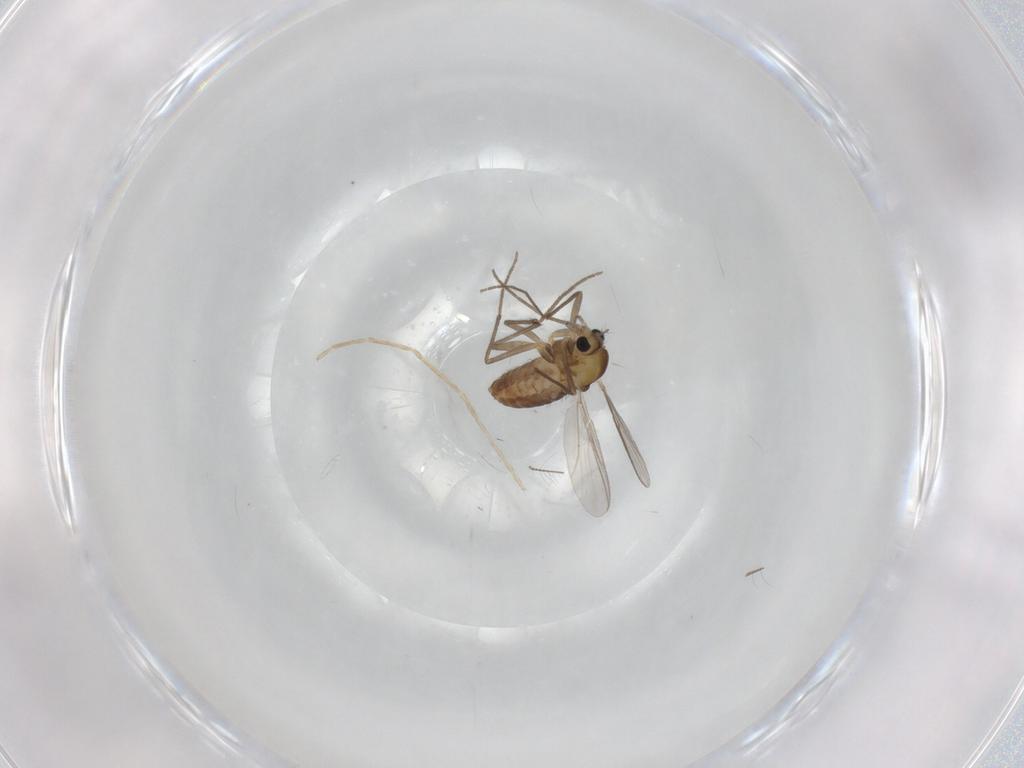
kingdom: Animalia
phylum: Arthropoda
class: Insecta
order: Diptera
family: Chironomidae
